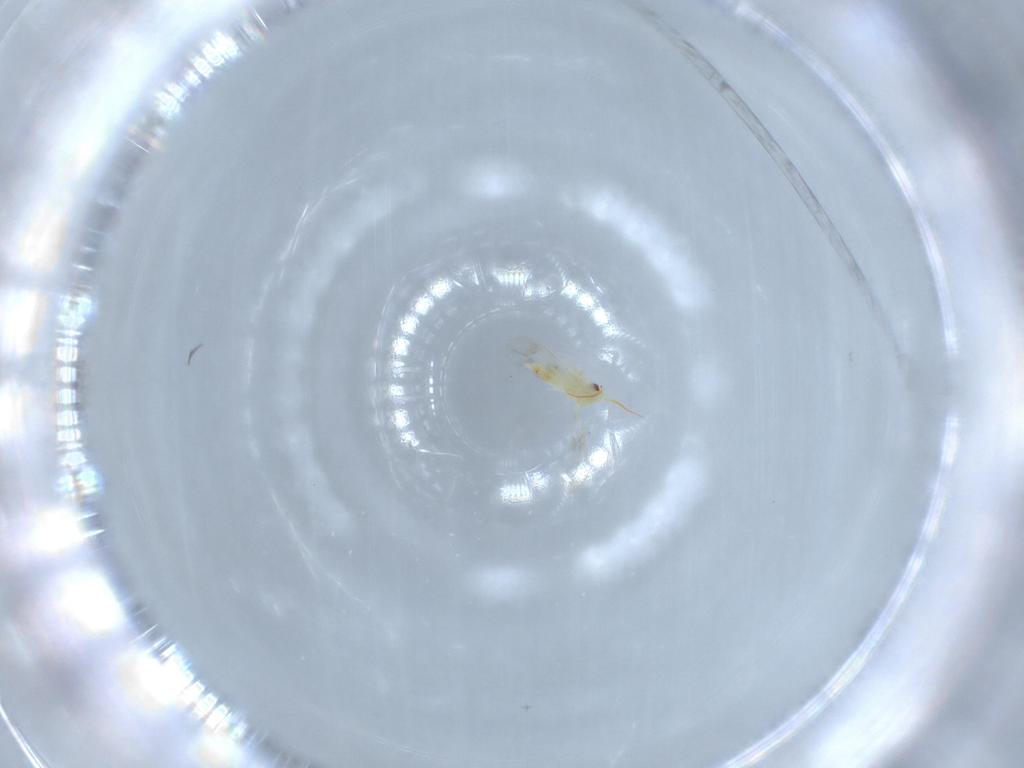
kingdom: Animalia
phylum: Arthropoda
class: Insecta
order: Hemiptera
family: Aleyrodidae
